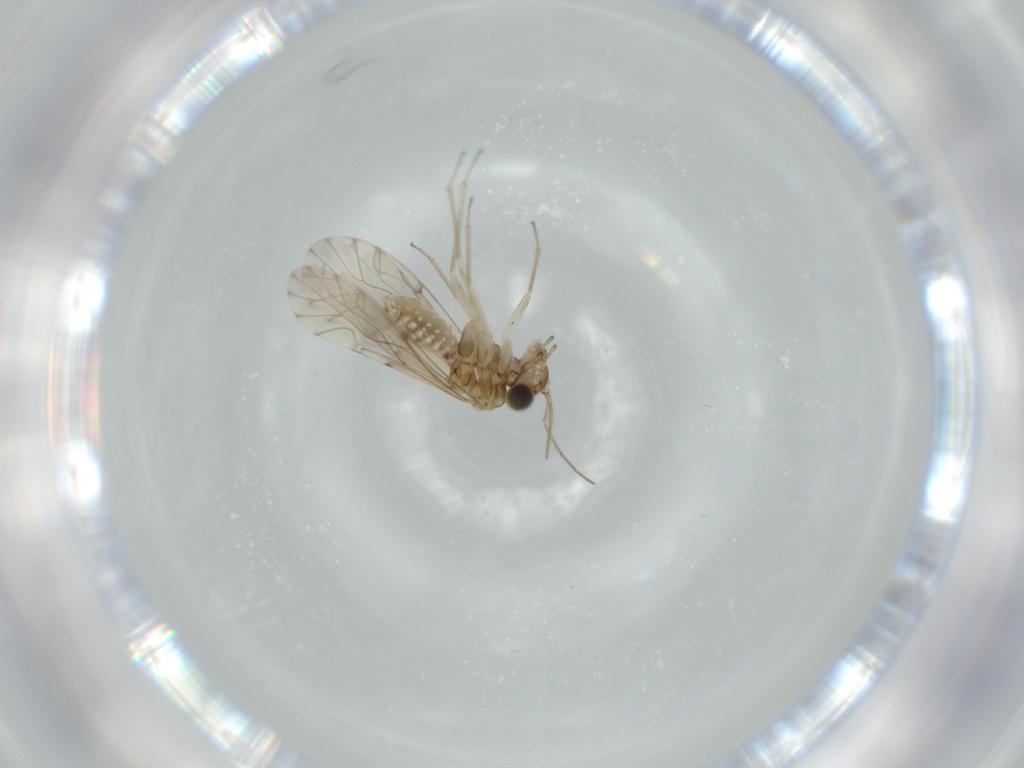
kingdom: Animalia
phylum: Arthropoda
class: Insecta
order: Psocodea
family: Lachesillidae
